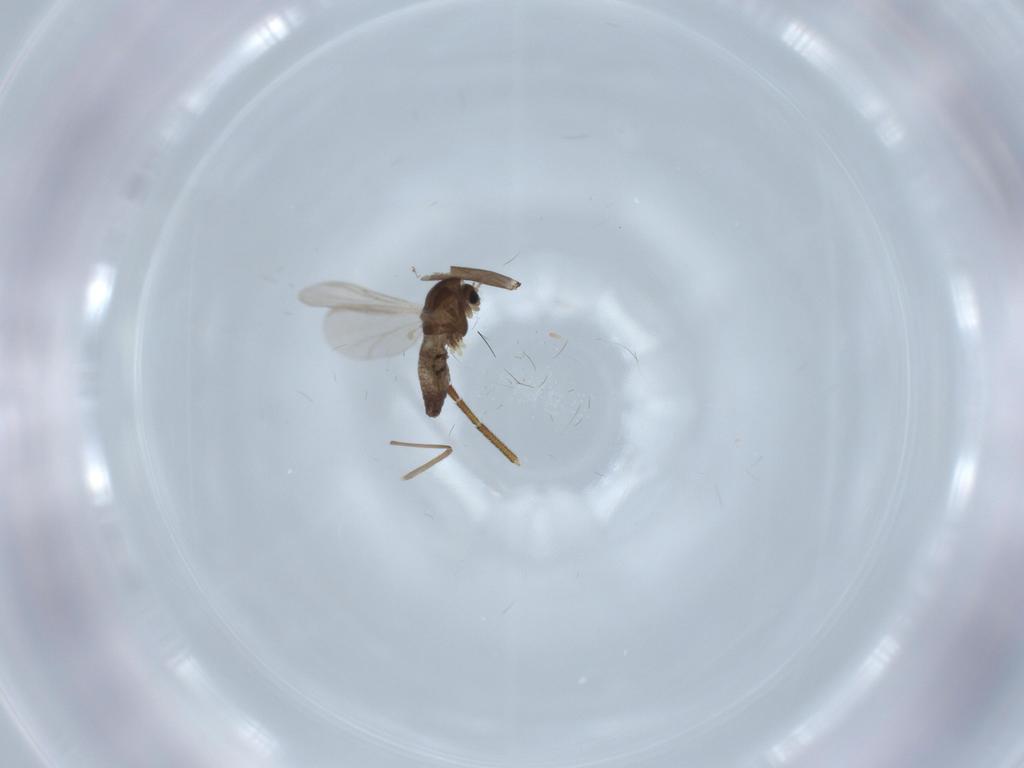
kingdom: Animalia
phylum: Arthropoda
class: Insecta
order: Diptera
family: Chironomidae
